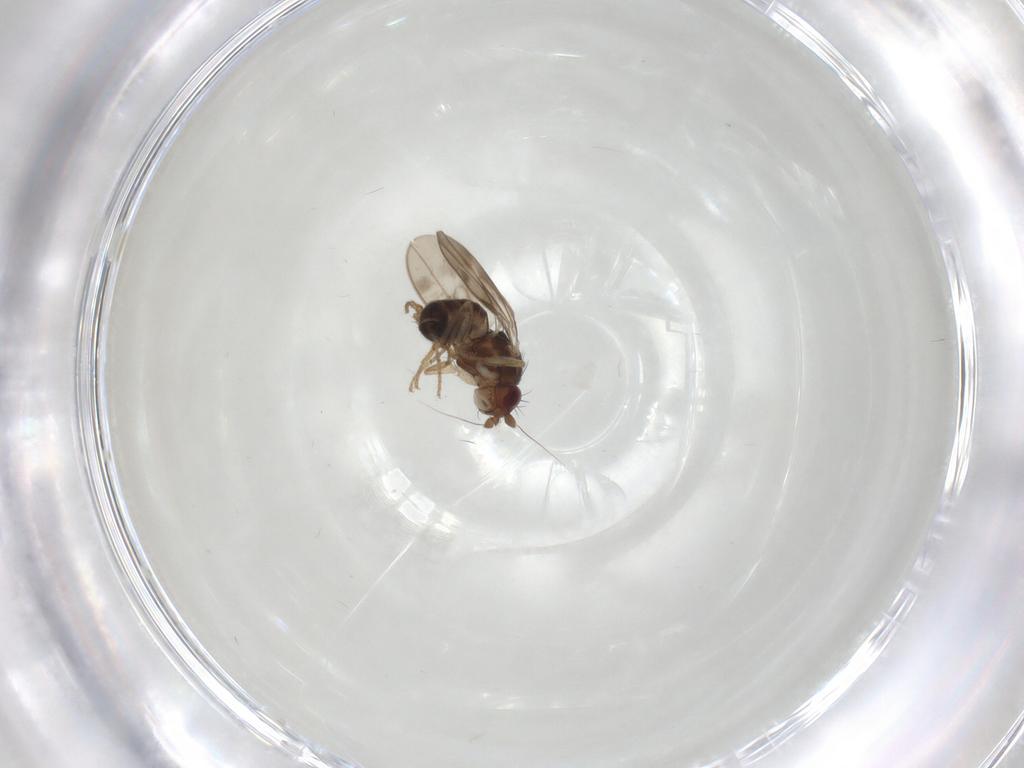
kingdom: Animalia
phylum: Arthropoda
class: Insecta
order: Diptera
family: Sphaeroceridae
